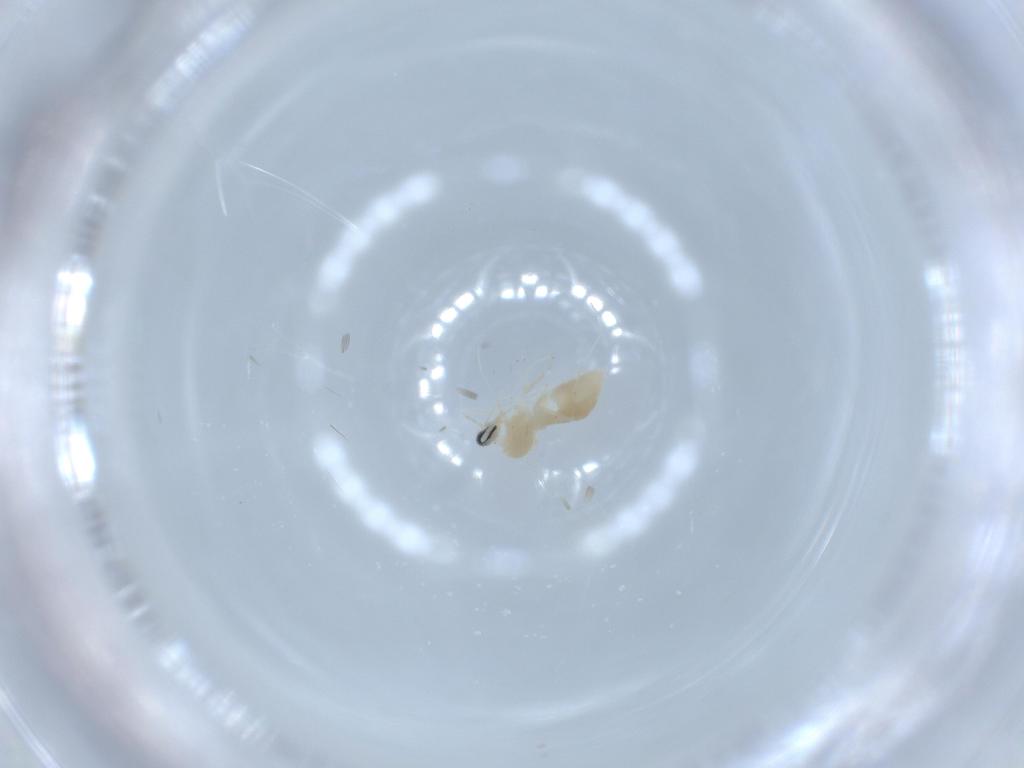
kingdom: Animalia
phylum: Arthropoda
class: Insecta
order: Diptera
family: Cecidomyiidae
